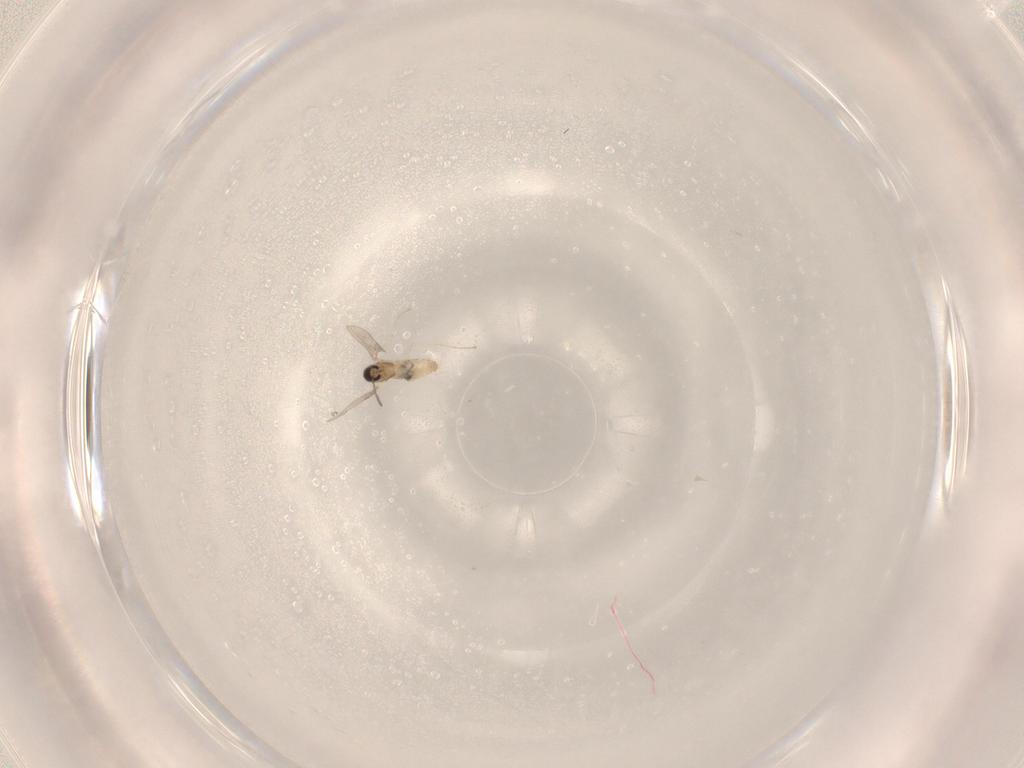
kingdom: Animalia
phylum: Arthropoda
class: Insecta
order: Diptera
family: Cecidomyiidae
